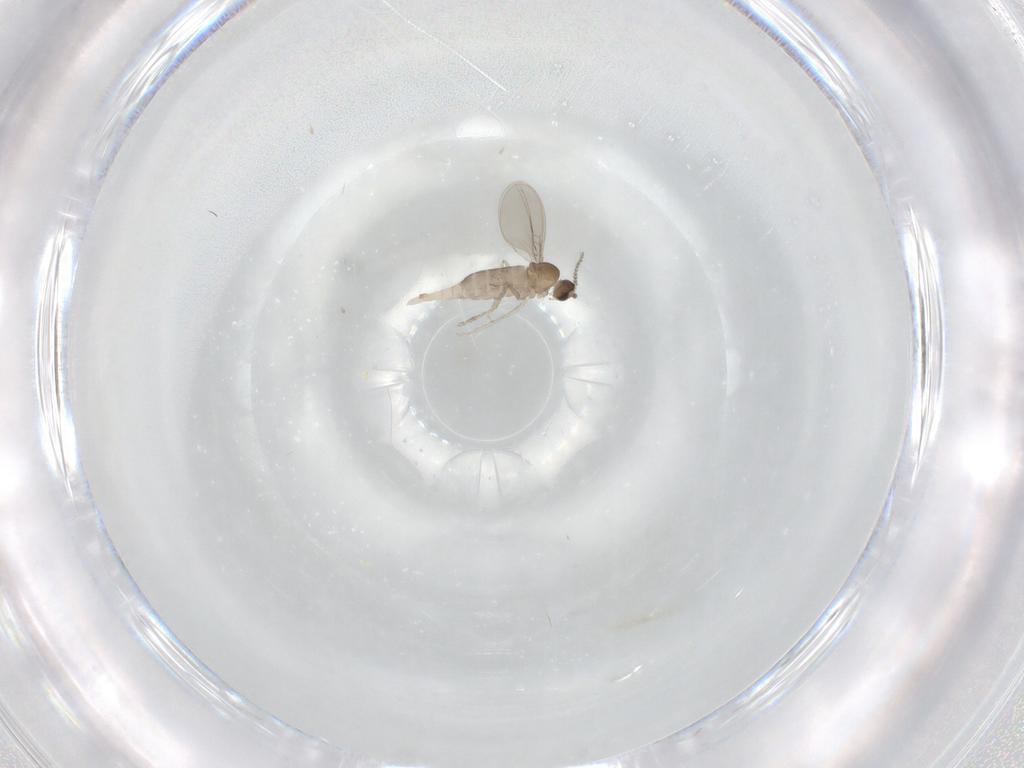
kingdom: Animalia
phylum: Arthropoda
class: Insecta
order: Diptera
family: Cecidomyiidae
